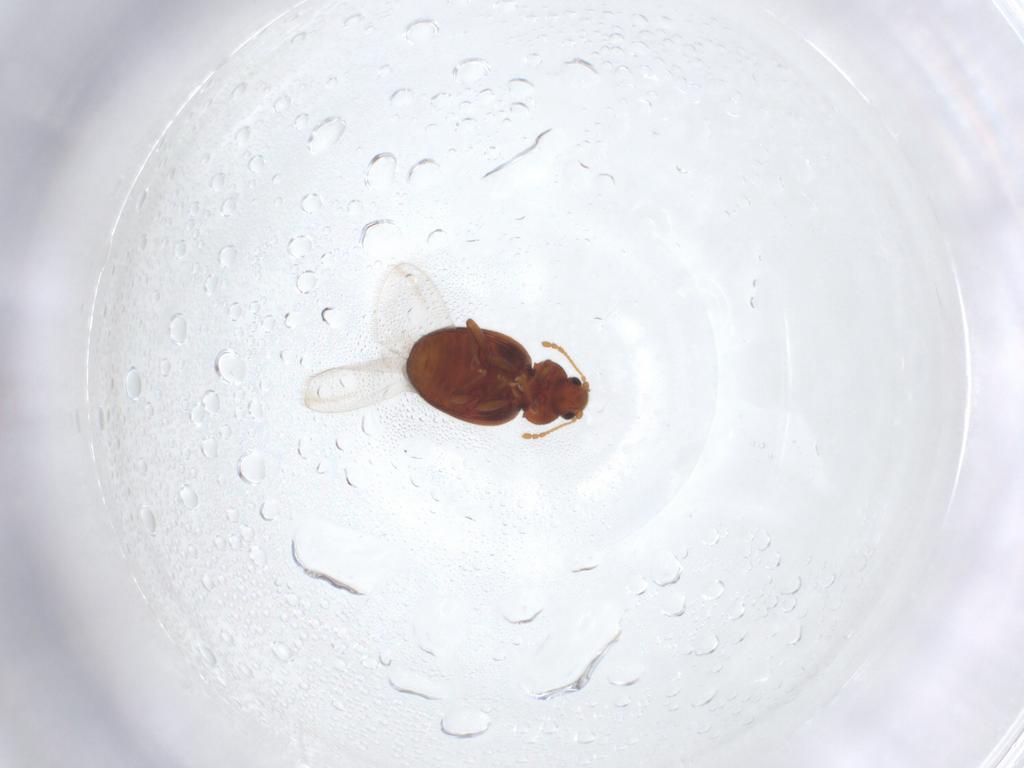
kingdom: Animalia
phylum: Arthropoda
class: Insecta
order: Coleoptera
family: Latridiidae
